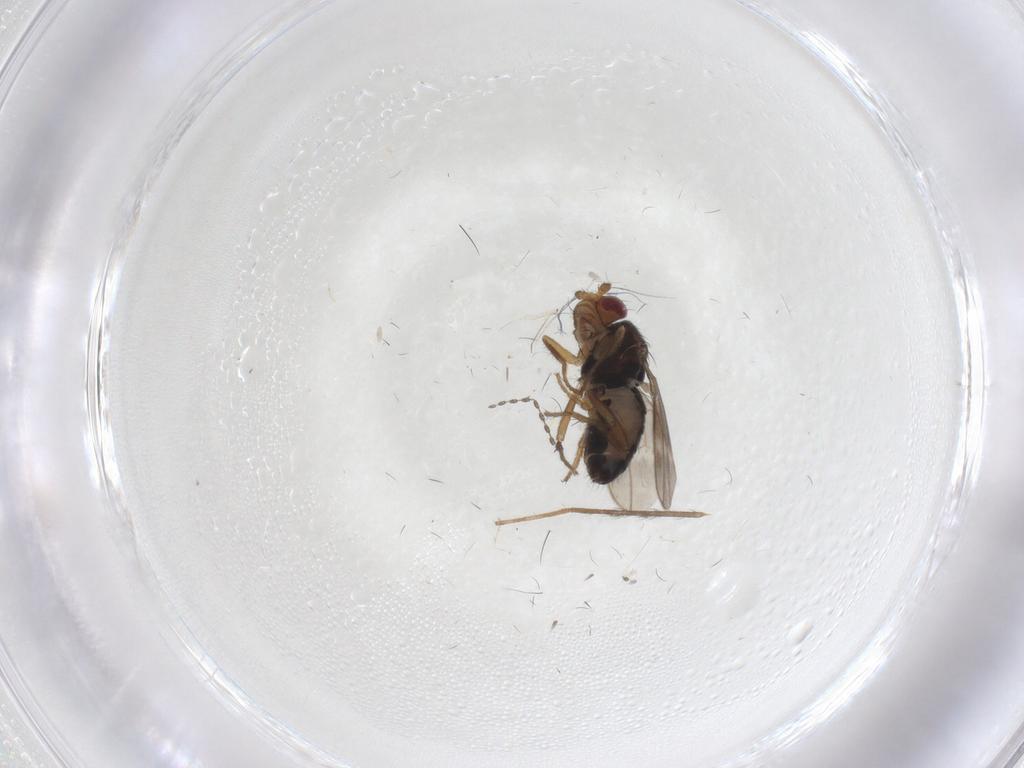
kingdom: Animalia
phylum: Arthropoda
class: Insecta
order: Diptera
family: Sphaeroceridae
